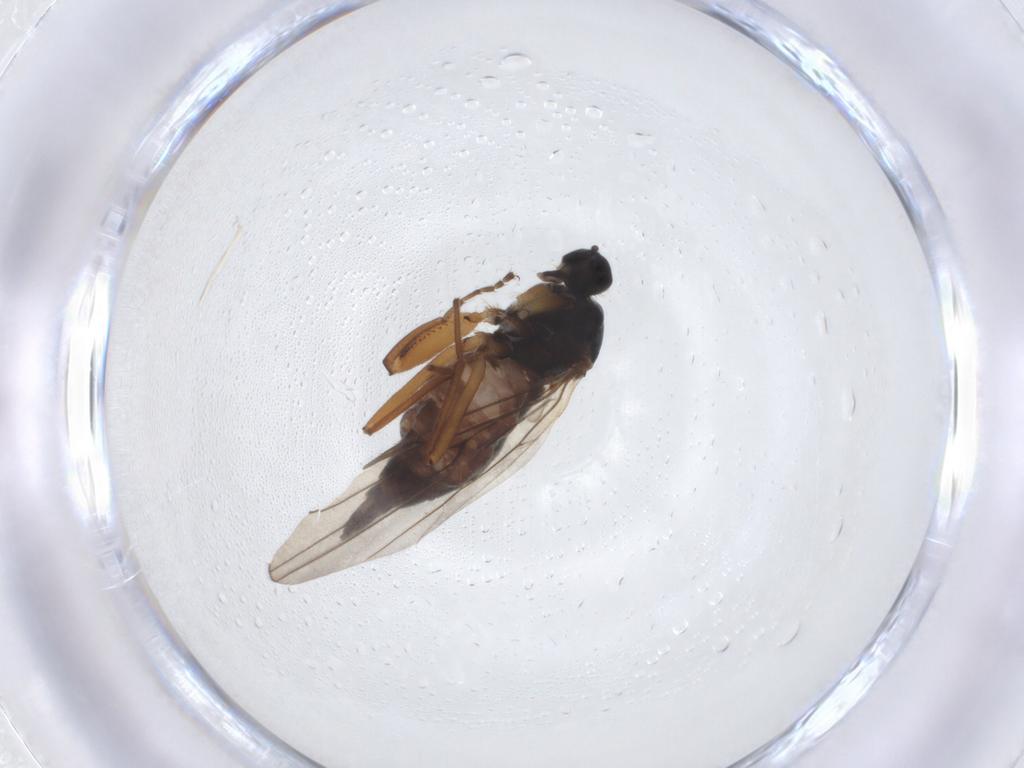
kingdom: Animalia
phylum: Arthropoda
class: Insecta
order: Diptera
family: Hybotidae
